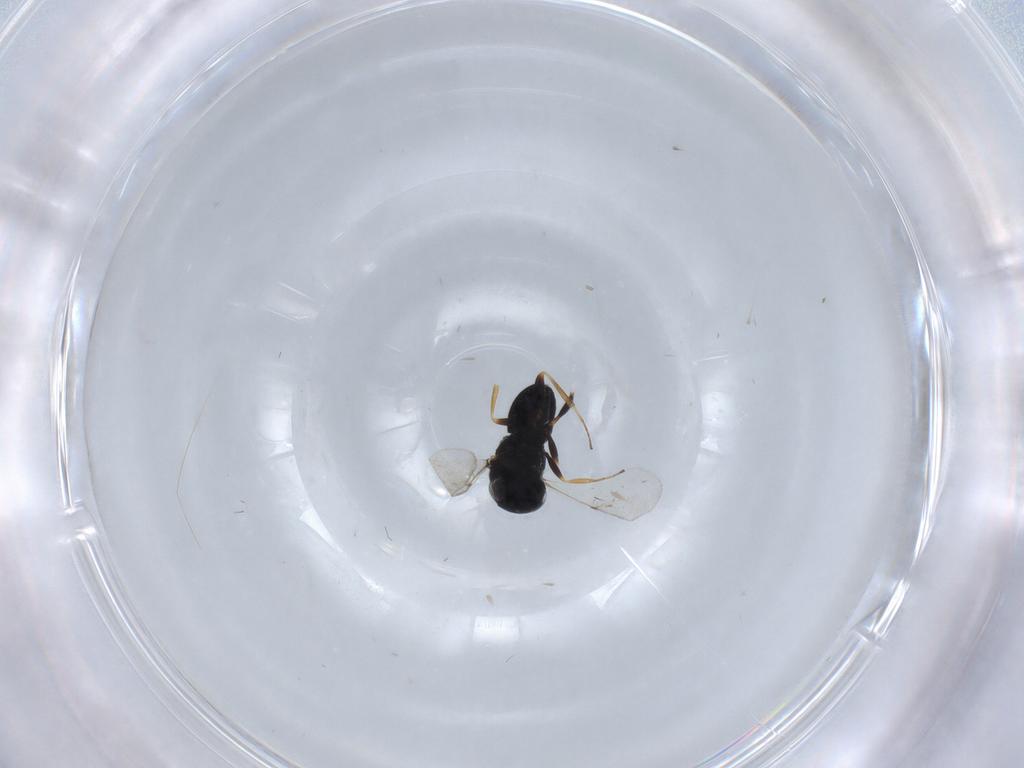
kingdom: Animalia
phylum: Arthropoda
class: Insecta
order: Coleoptera
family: Curculionidae
